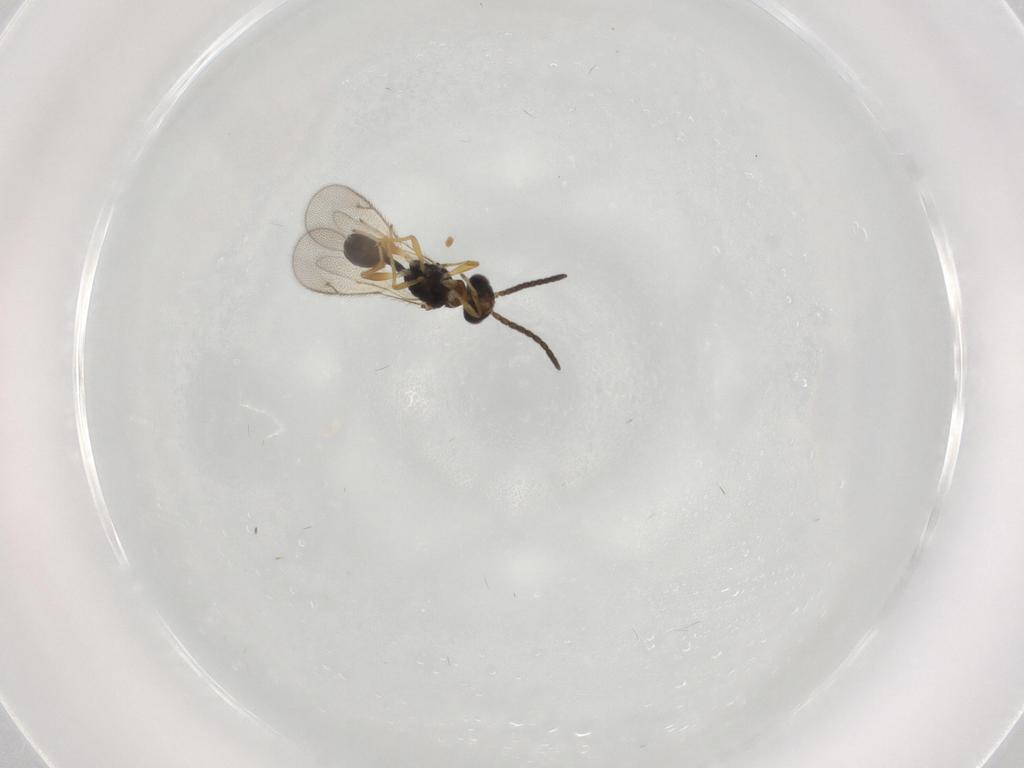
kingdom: Animalia
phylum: Arthropoda
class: Insecta
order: Hymenoptera
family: Diparidae
